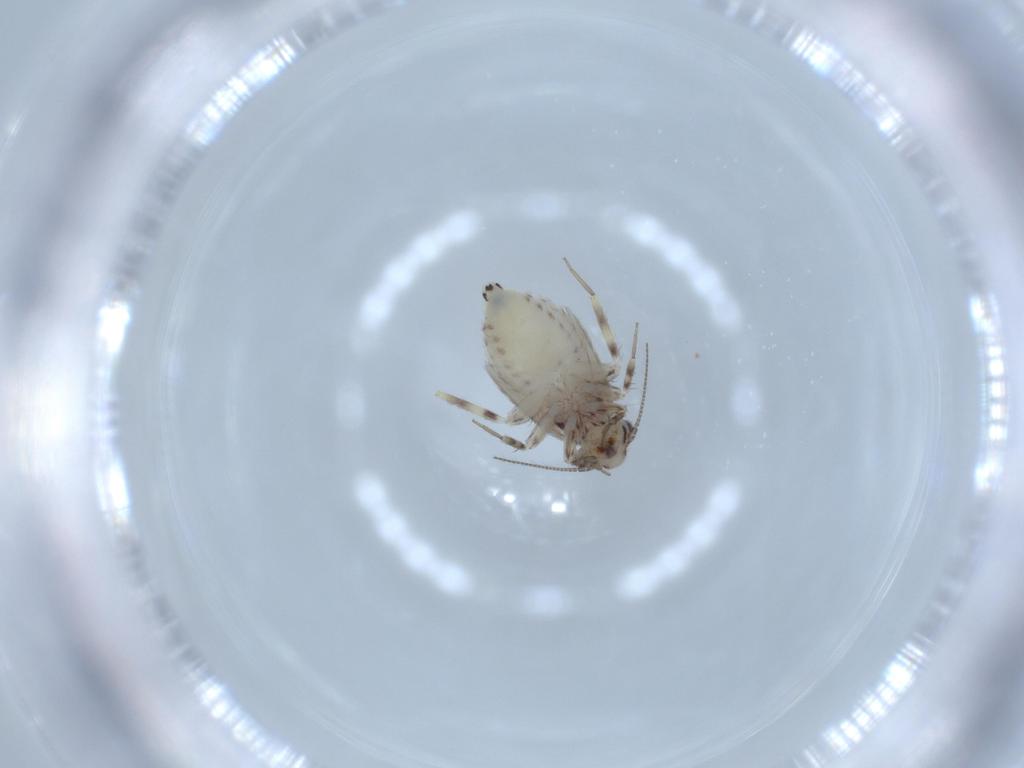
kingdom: Animalia
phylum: Arthropoda
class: Insecta
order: Psocodea
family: Lepidopsocidae
